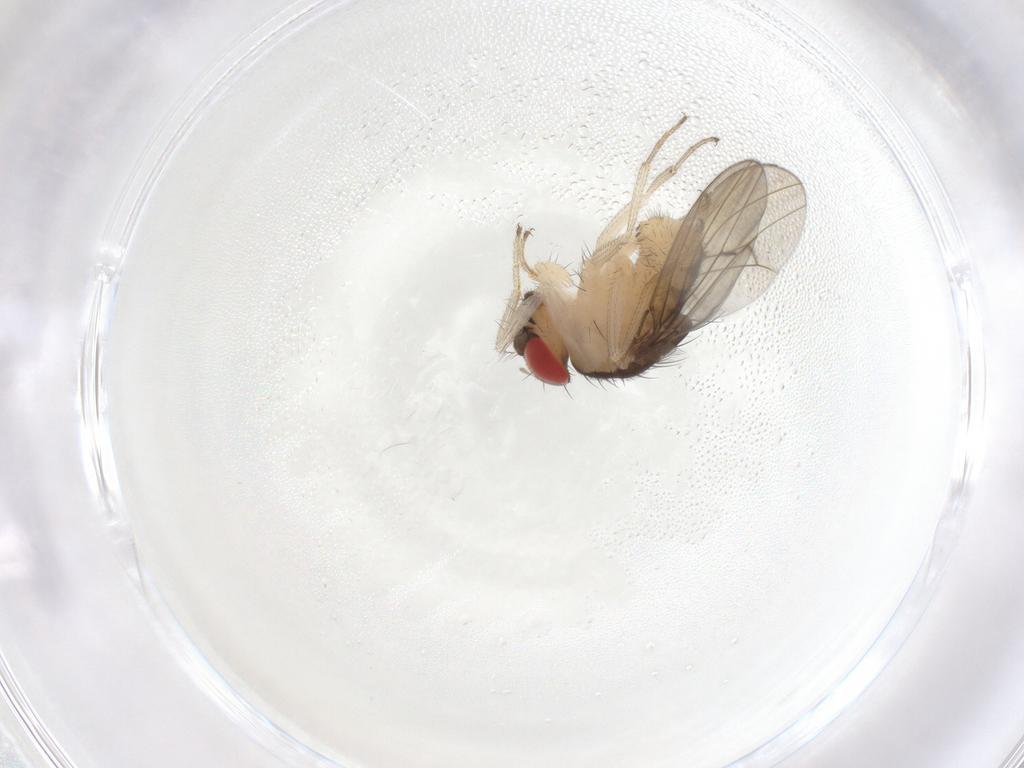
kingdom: Animalia
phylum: Arthropoda
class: Insecta
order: Diptera
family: Drosophilidae
